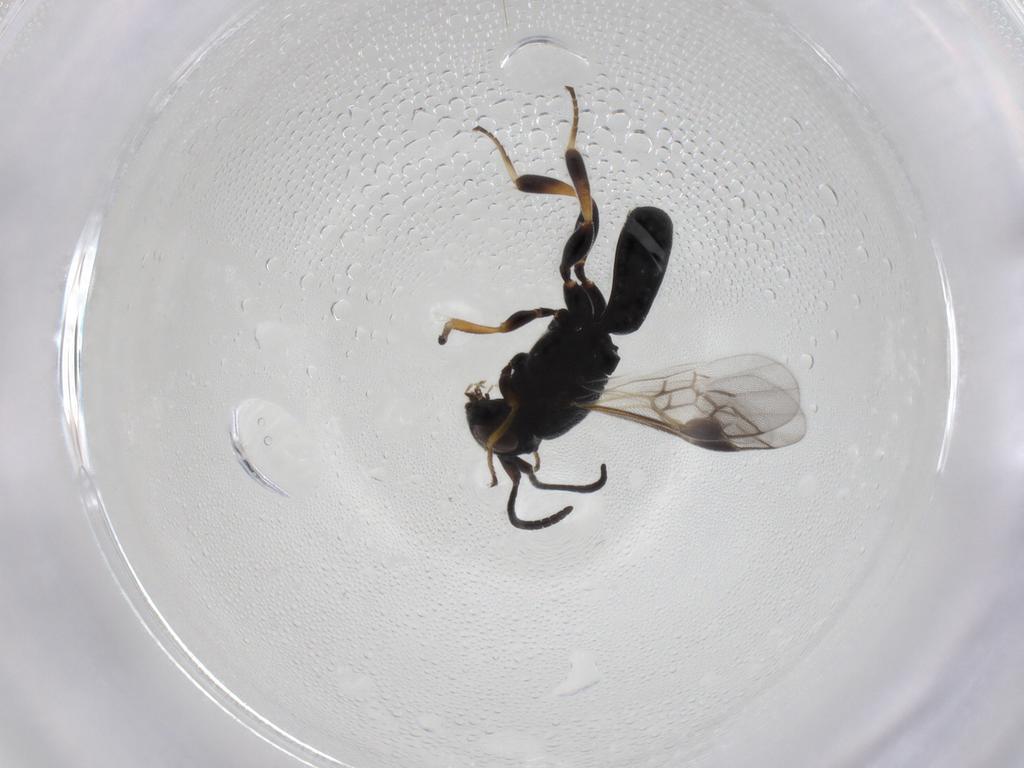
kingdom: Animalia
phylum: Arthropoda
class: Insecta
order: Hymenoptera
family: Braconidae
